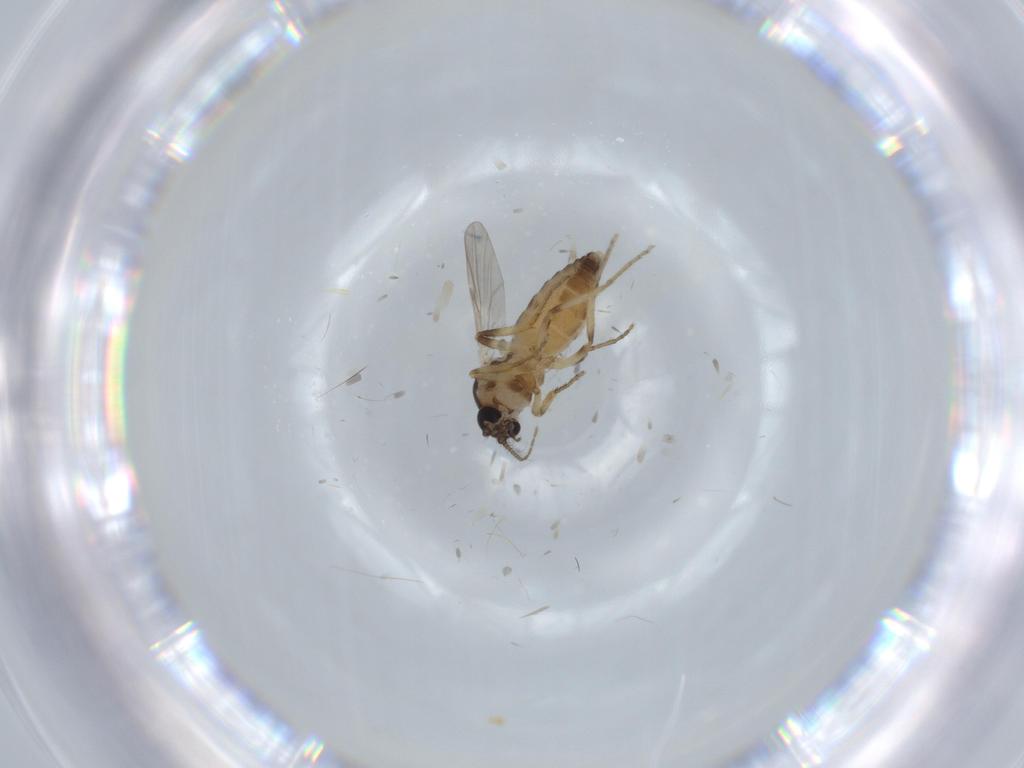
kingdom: Animalia
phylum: Arthropoda
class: Insecta
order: Diptera
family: Ceratopogonidae
